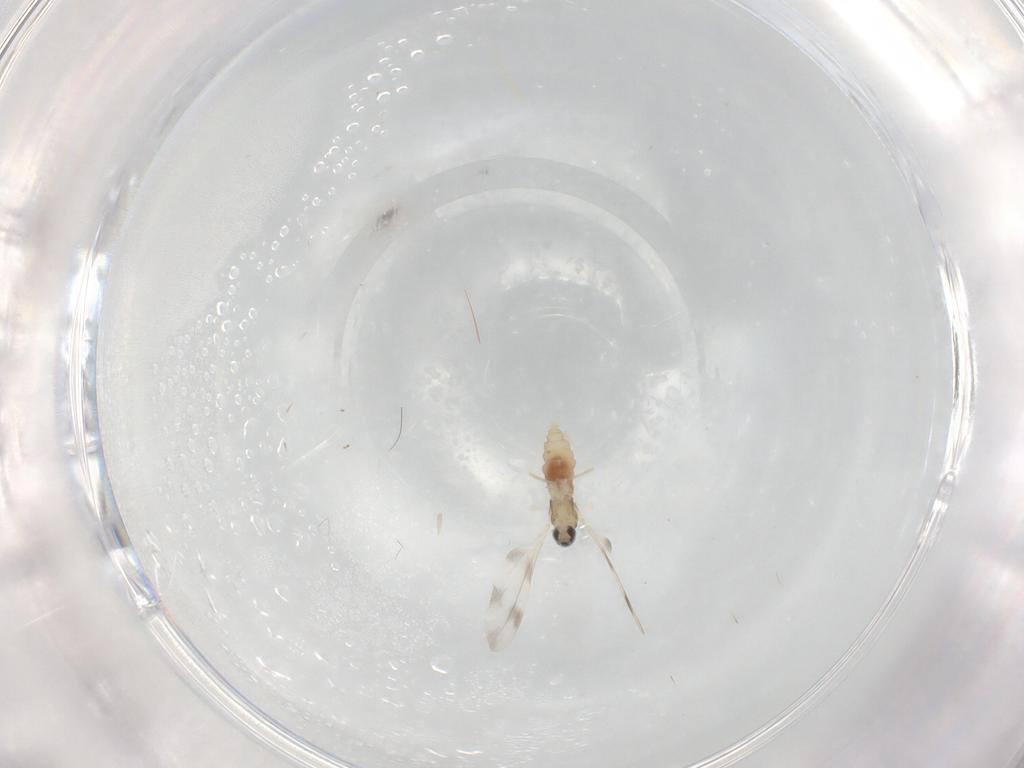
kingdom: Animalia
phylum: Arthropoda
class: Insecta
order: Diptera
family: Cecidomyiidae
